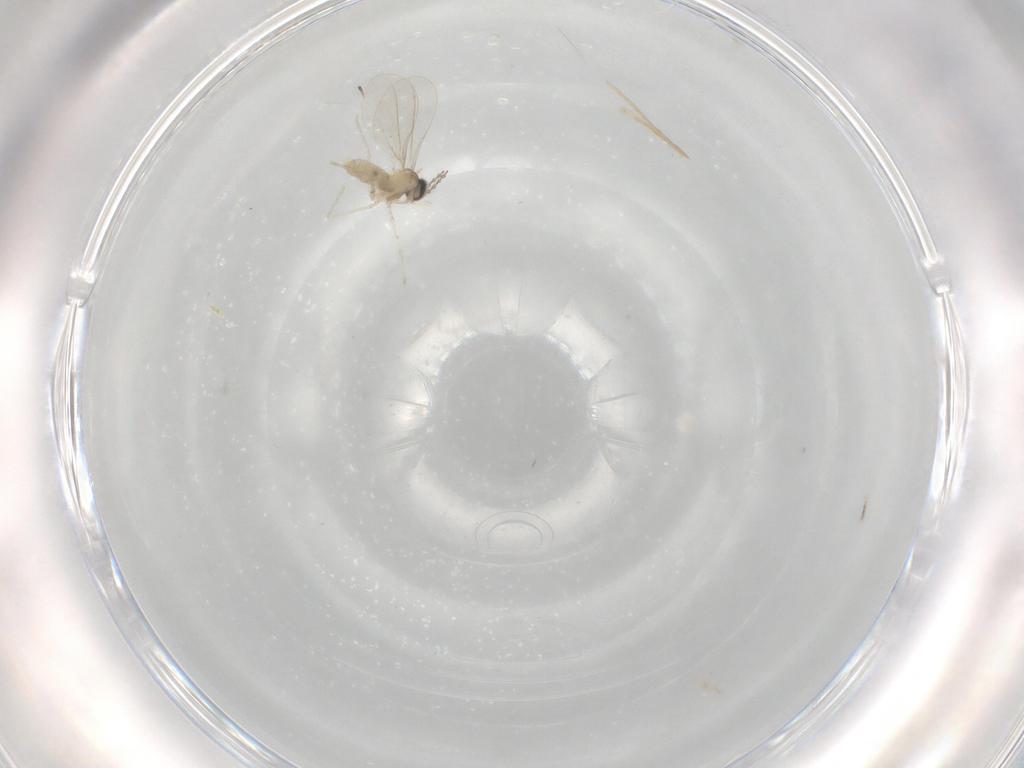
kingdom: Animalia
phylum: Arthropoda
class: Insecta
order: Diptera
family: Cecidomyiidae
